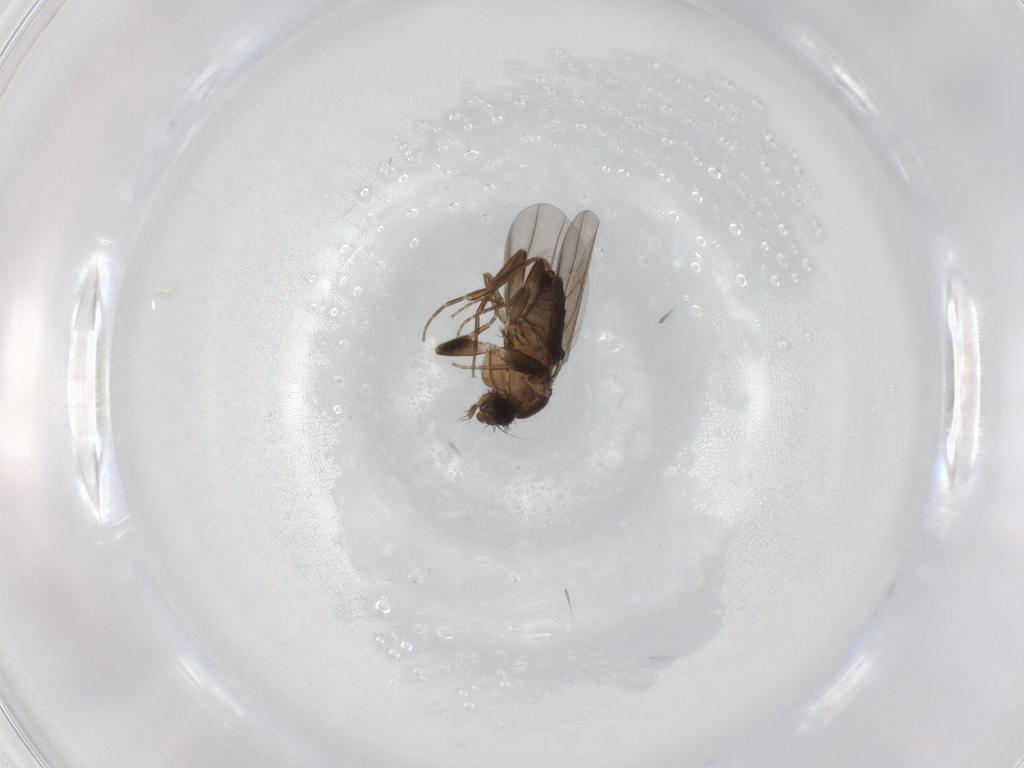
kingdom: Animalia
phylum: Arthropoda
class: Insecta
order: Diptera
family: Phoridae
